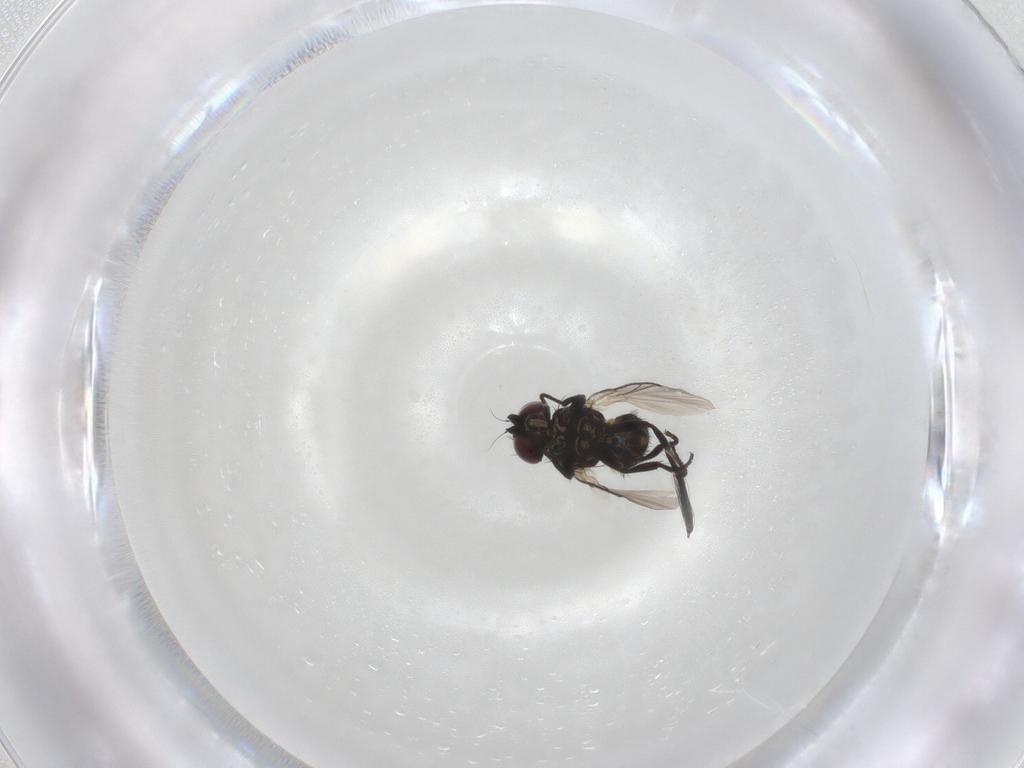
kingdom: Animalia
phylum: Arthropoda
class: Insecta
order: Diptera
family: Agromyzidae
